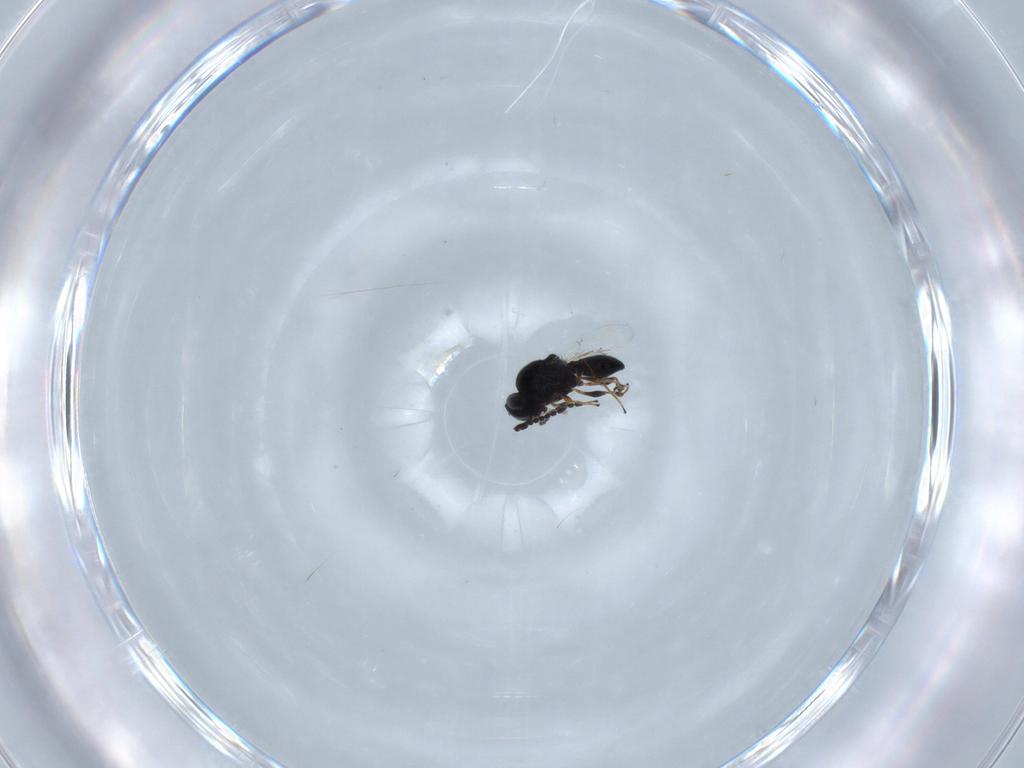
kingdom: Animalia
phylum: Arthropoda
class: Insecta
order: Hymenoptera
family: Platygastridae
